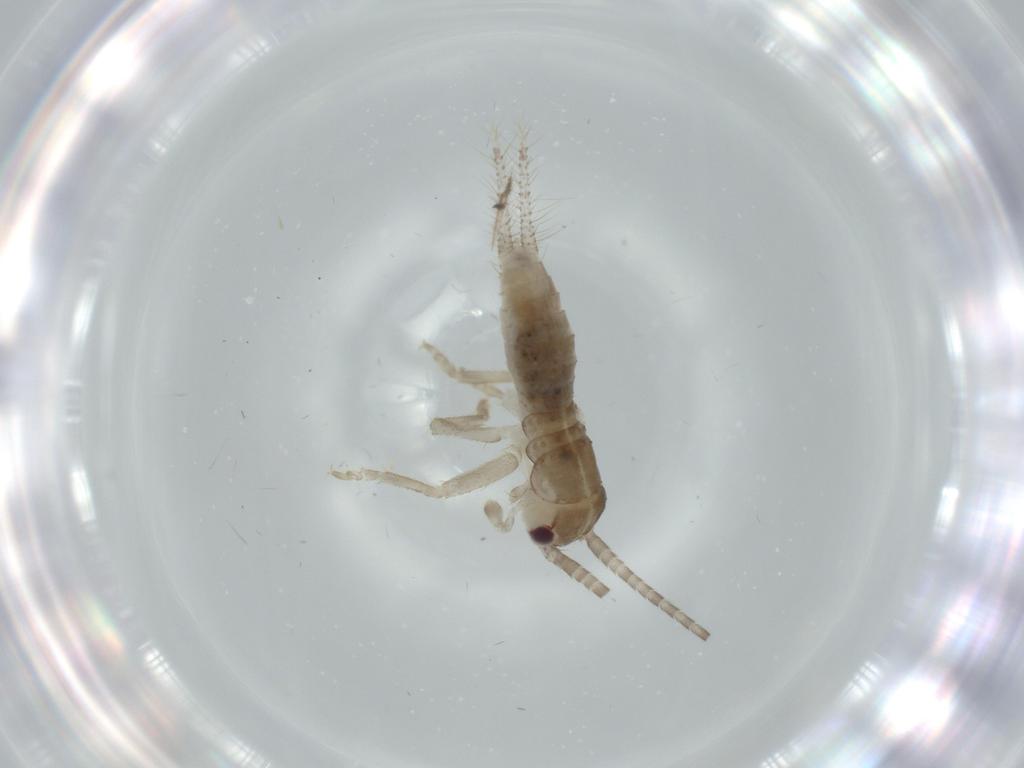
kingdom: Animalia
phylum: Arthropoda
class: Insecta
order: Orthoptera
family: Gryllidae
